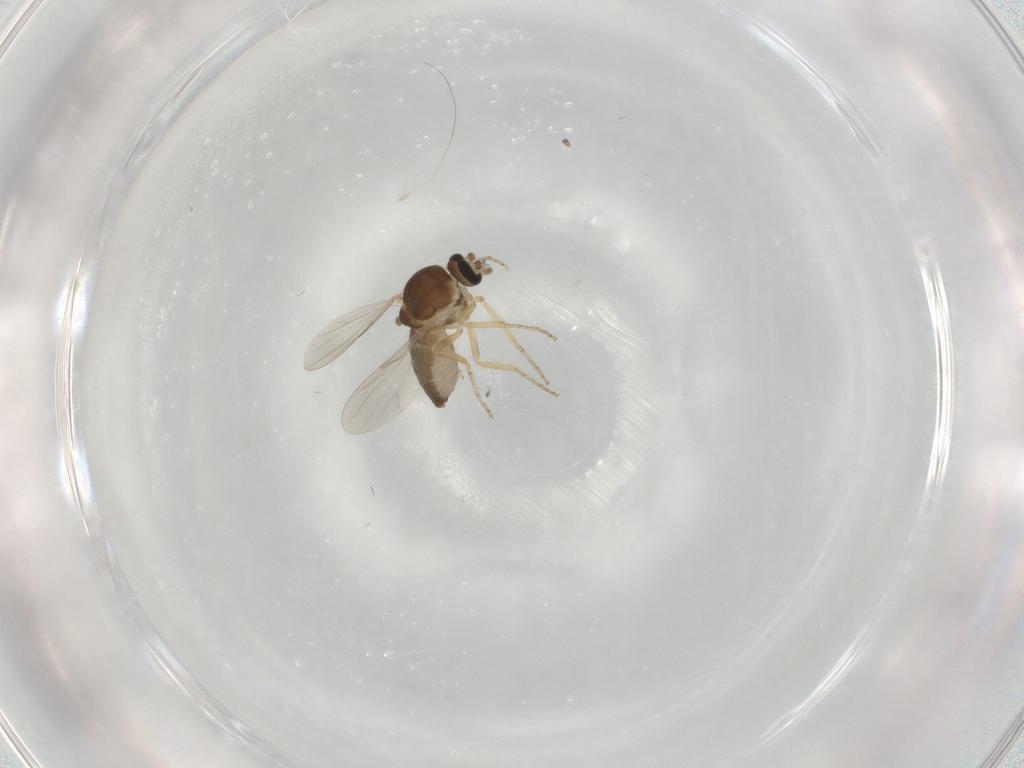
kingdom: Animalia
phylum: Arthropoda
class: Insecta
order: Diptera
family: Ceratopogonidae
